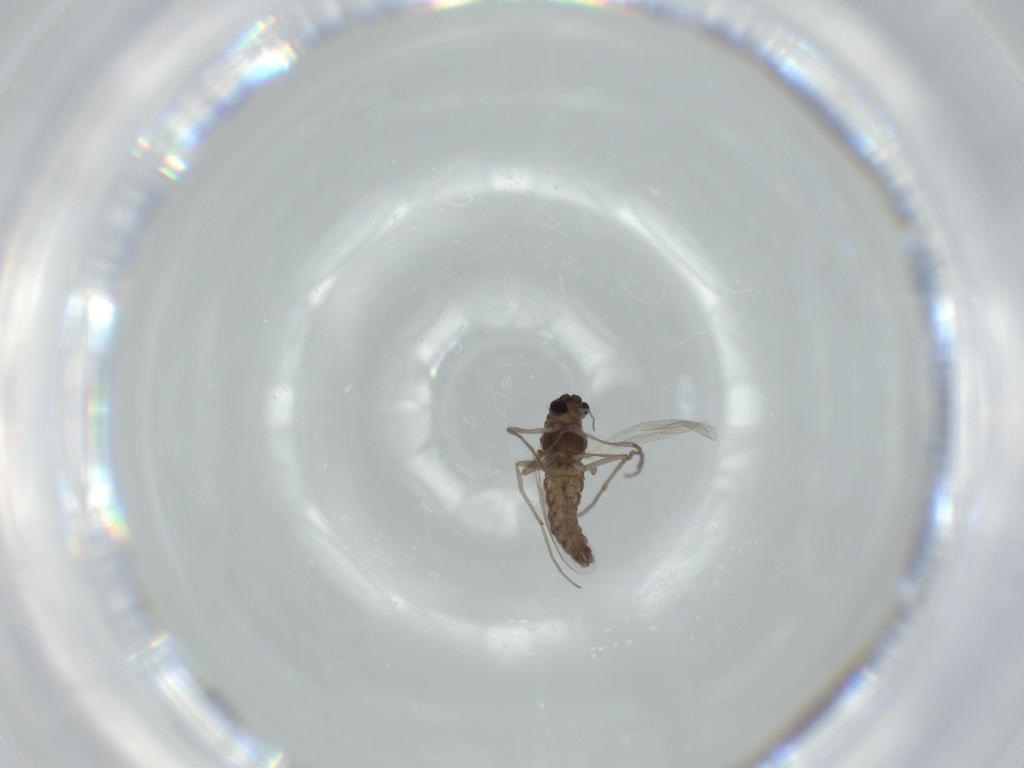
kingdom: Animalia
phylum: Arthropoda
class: Insecta
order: Diptera
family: Chironomidae
